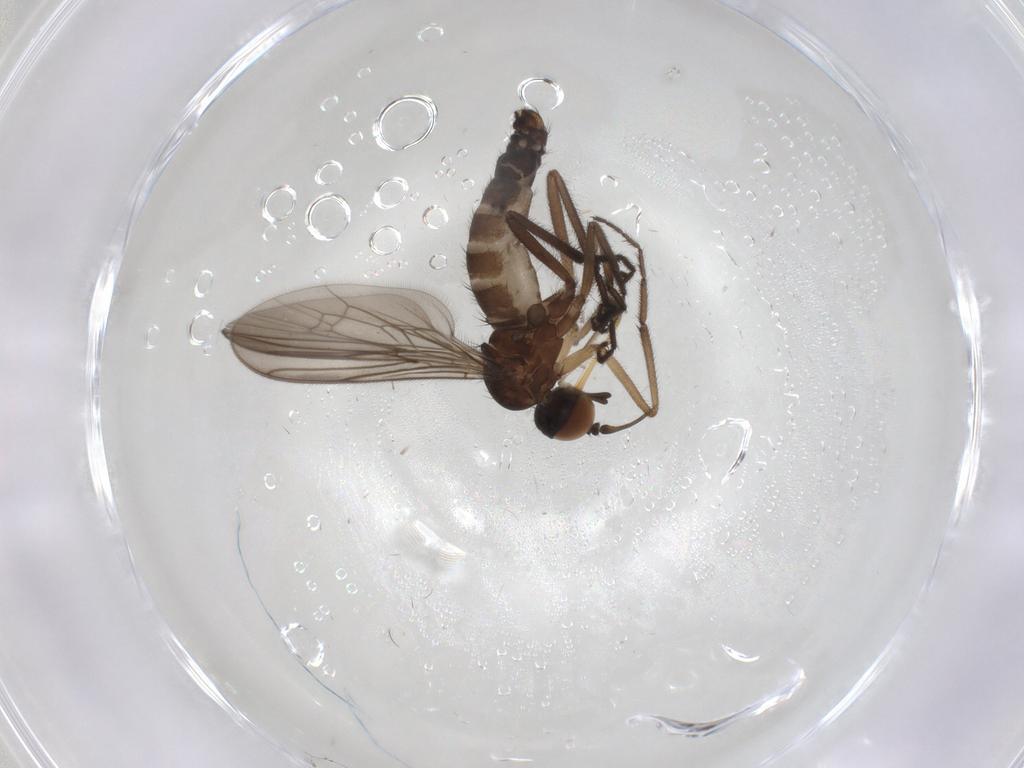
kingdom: Animalia
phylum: Arthropoda
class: Insecta
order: Diptera
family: Empididae
